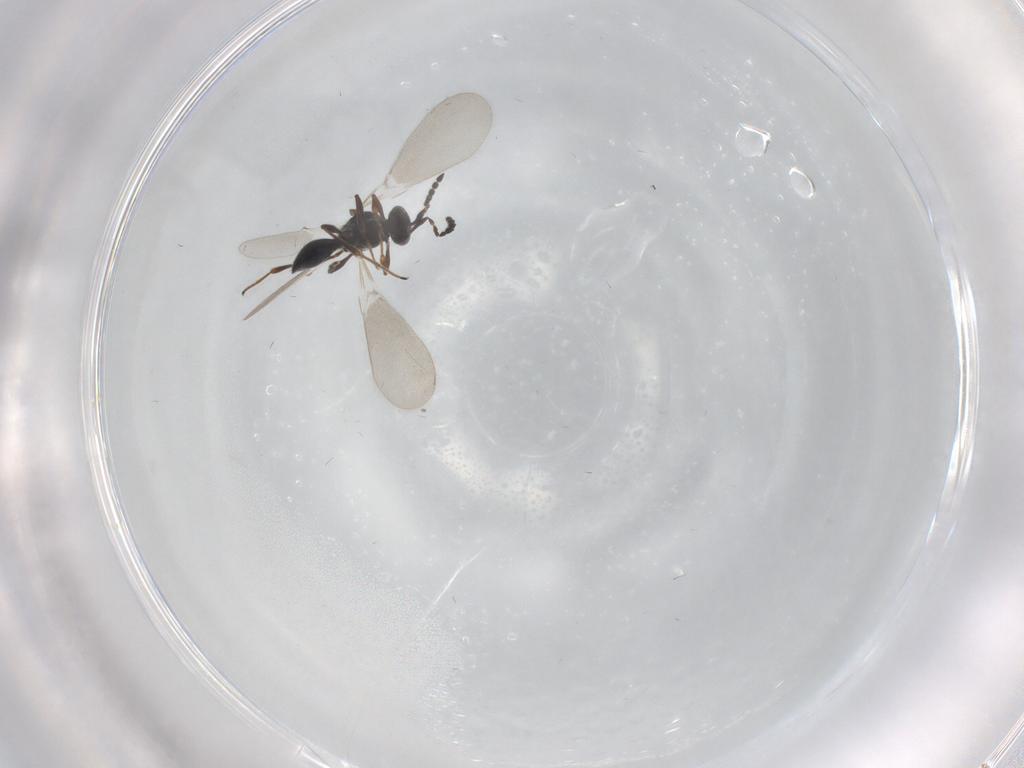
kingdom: Animalia
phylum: Arthropoda
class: Insecta
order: Hymenoptera
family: Platygastridae
